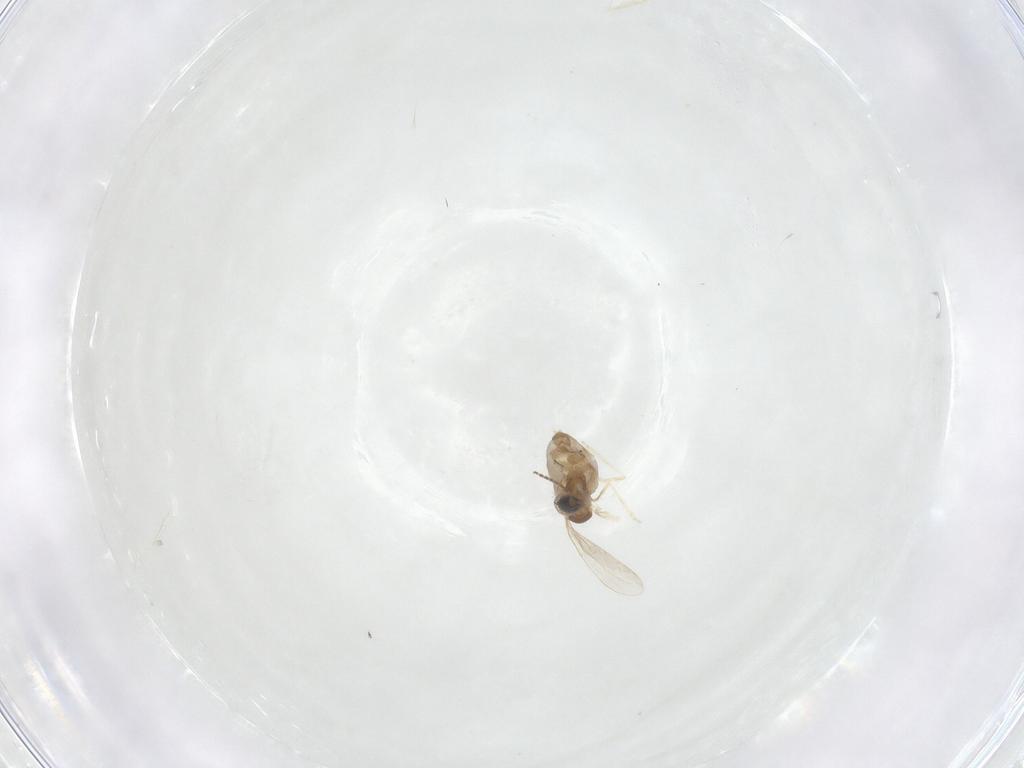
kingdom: Animalia
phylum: Arthropoda
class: Insecta
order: Diptera
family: Cecidomyiidae
